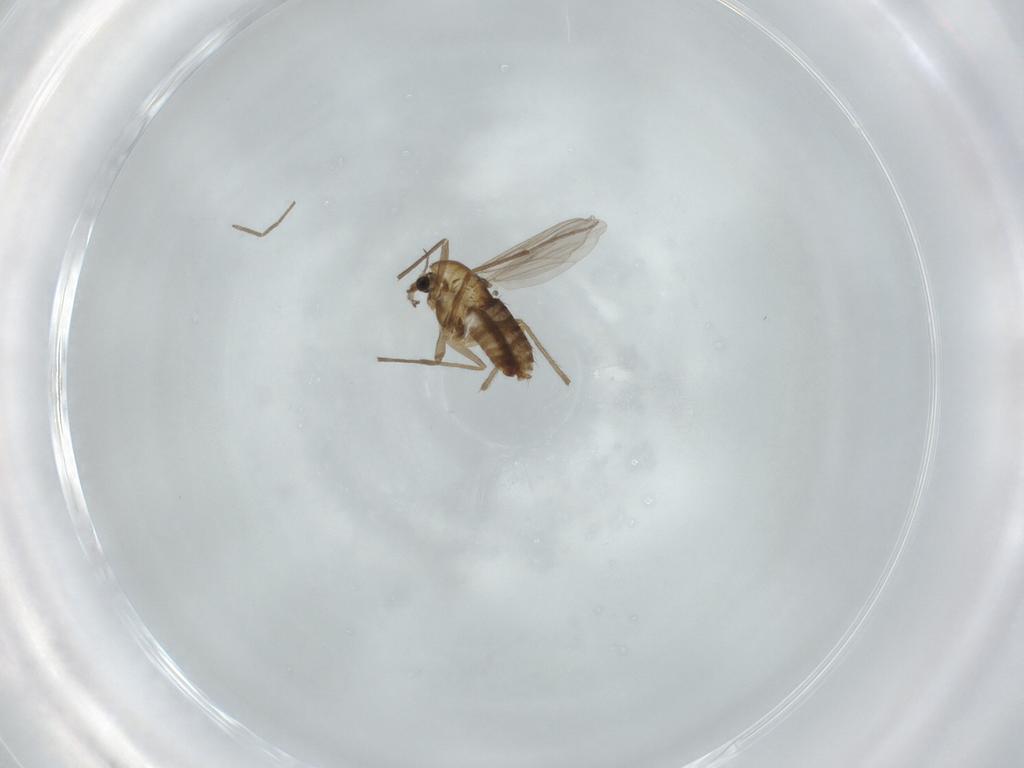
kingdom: Animalia
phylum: Arthropoda
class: Insecta
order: Diptera
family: Chironomidae
